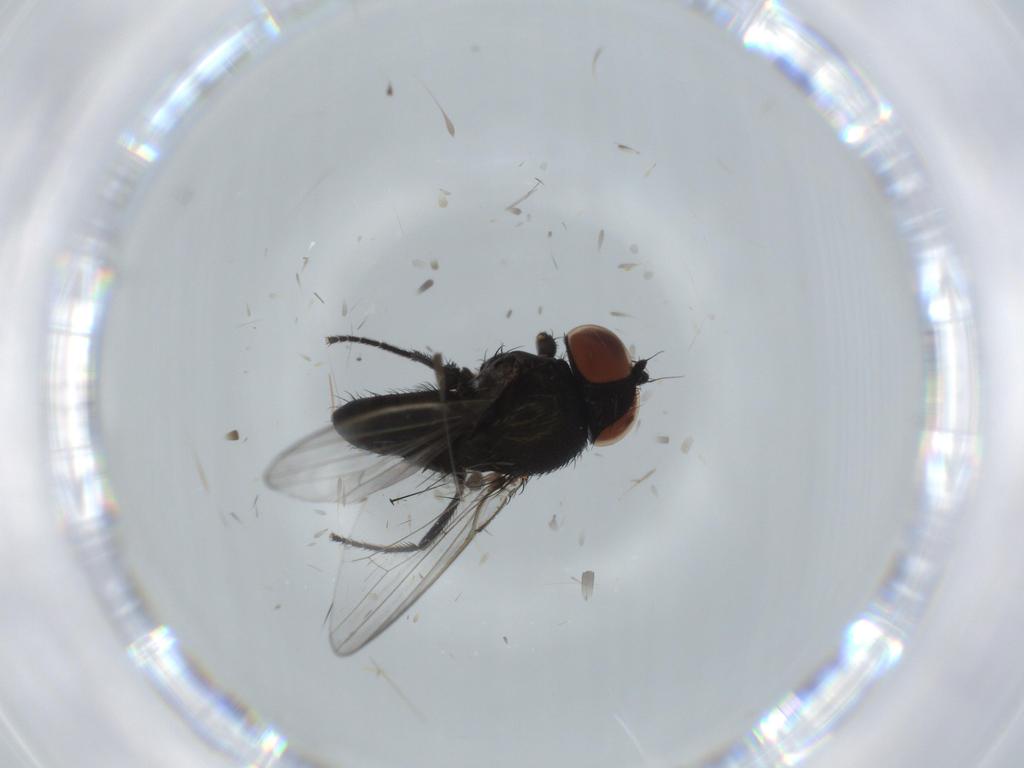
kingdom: Animalia
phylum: Arthropoda
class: Insecta
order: Diptera
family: Milichiidae
